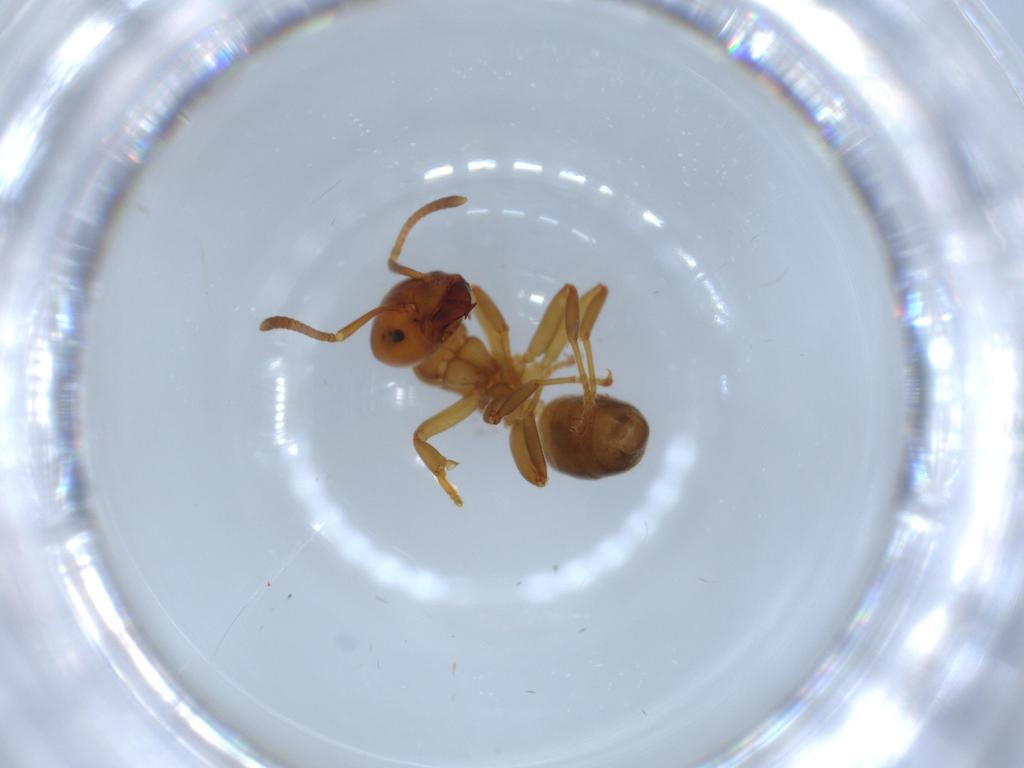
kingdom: Animalia
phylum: Arthropoda
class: Insecta
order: Hymenoptera
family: Formicidae
